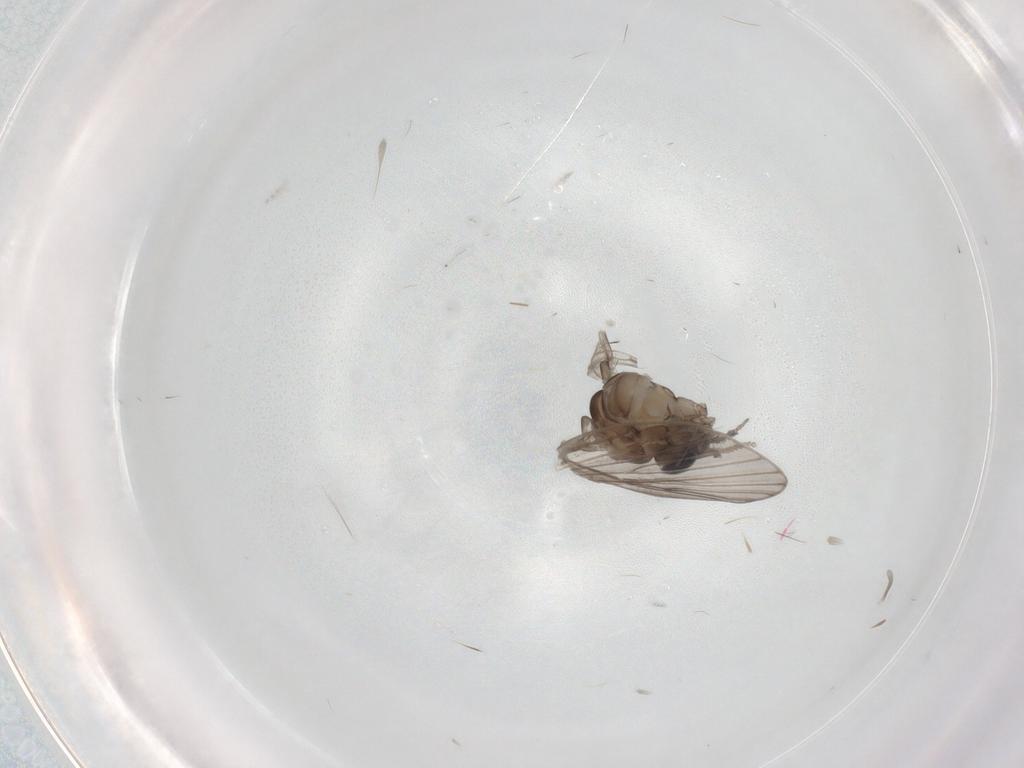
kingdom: Animalia
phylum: Arthropoda
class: Insecta
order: Diptera
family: Psychodidae
